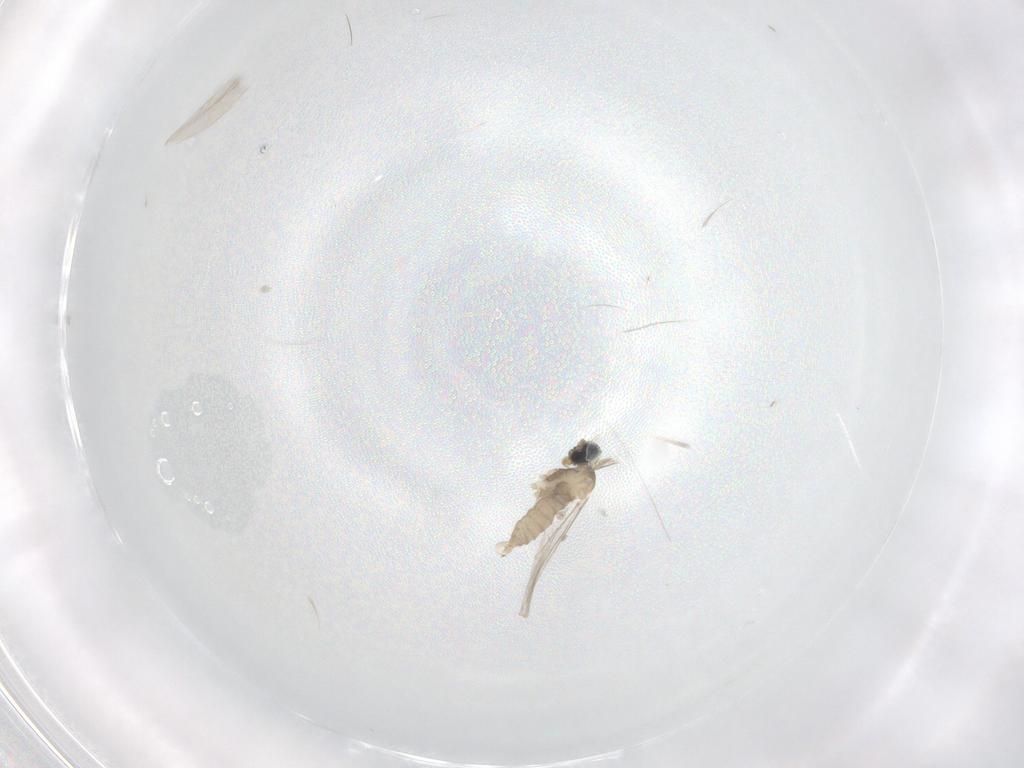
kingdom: Animalia
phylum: Arthropoda
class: Insecta
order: Diptera
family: Cecidomyiidae
